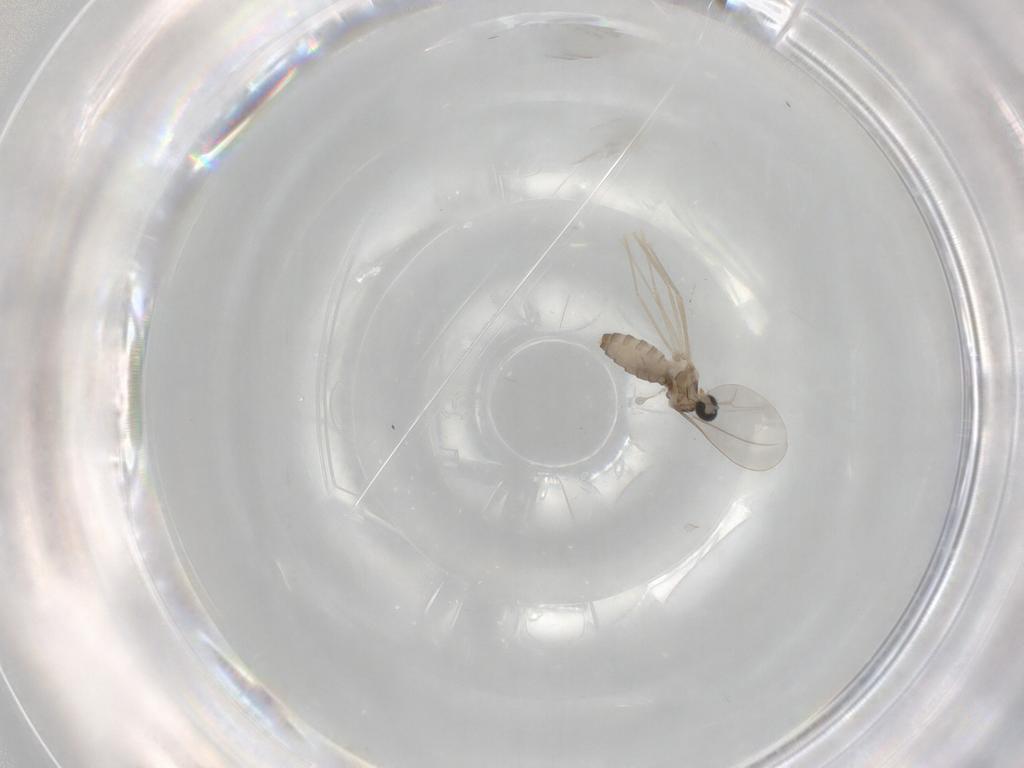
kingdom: Animalia
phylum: Arthropoda
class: Insecta
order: Diptera
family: Cecidomyiidae
